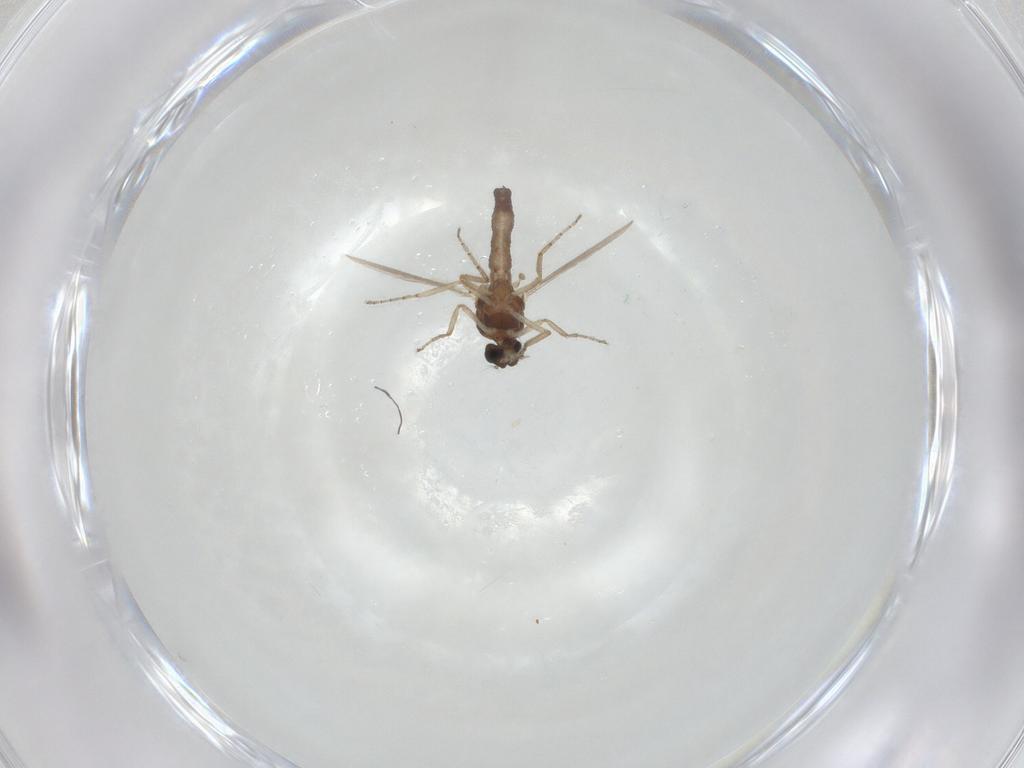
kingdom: Animalia
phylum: Arthropoda
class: Insecta
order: Diptera
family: Ceratopogonidae
